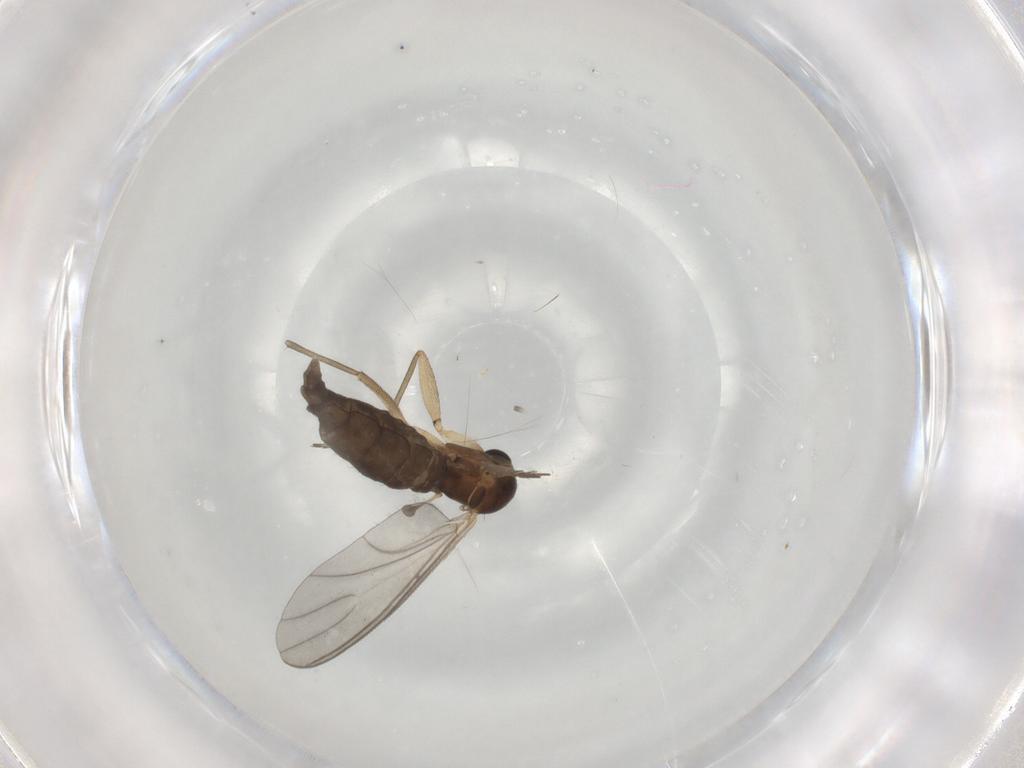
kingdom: Animalia
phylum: Arthropoda
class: Insecta
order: Diptera
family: Sciaridae
